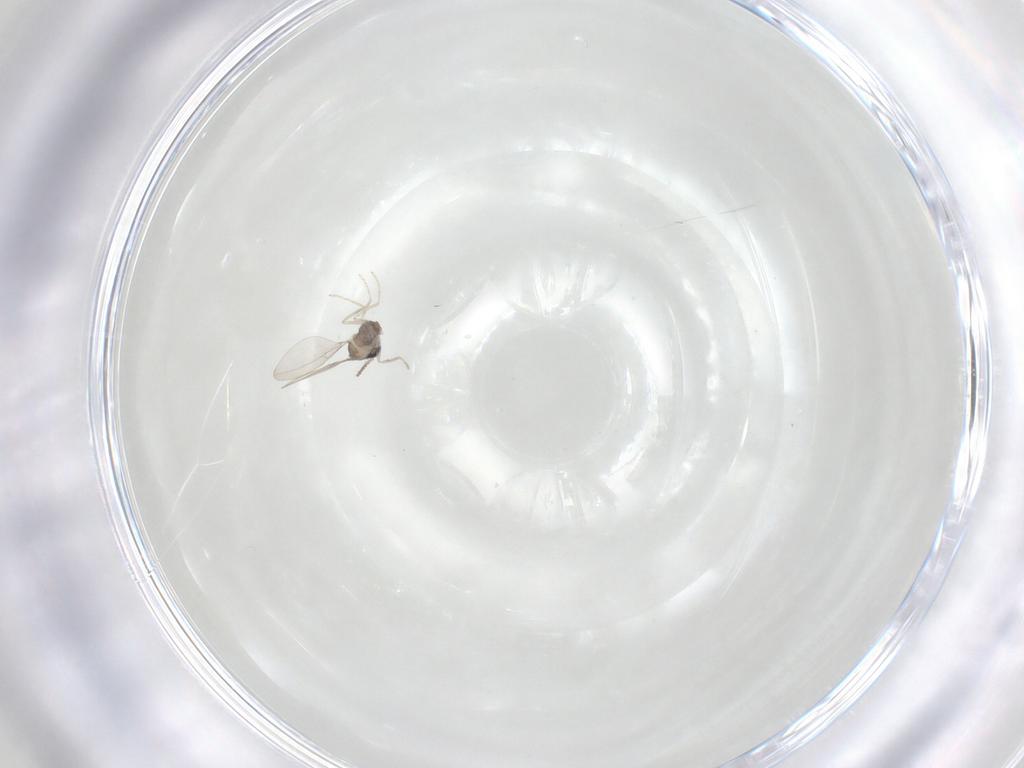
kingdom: Animalia
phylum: Arthropoda
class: Insecta
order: Diptera
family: Cecidomyiidae
